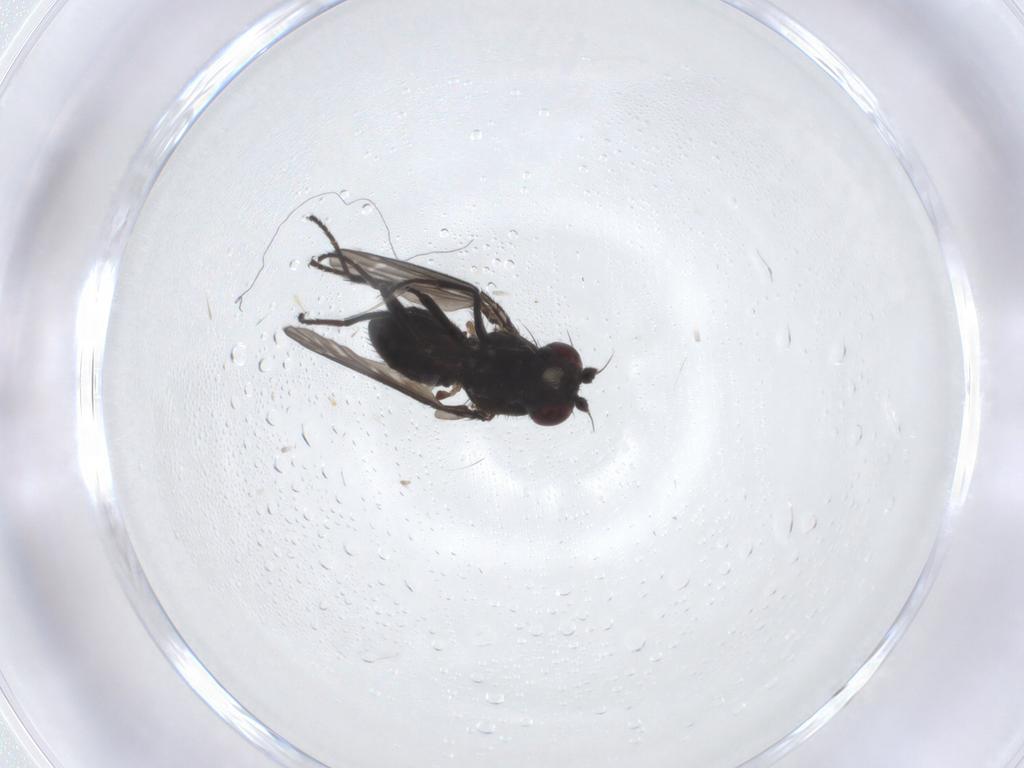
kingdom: Animalia
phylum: Arthropoda
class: Insecta
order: Diptera
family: Ephydridae
